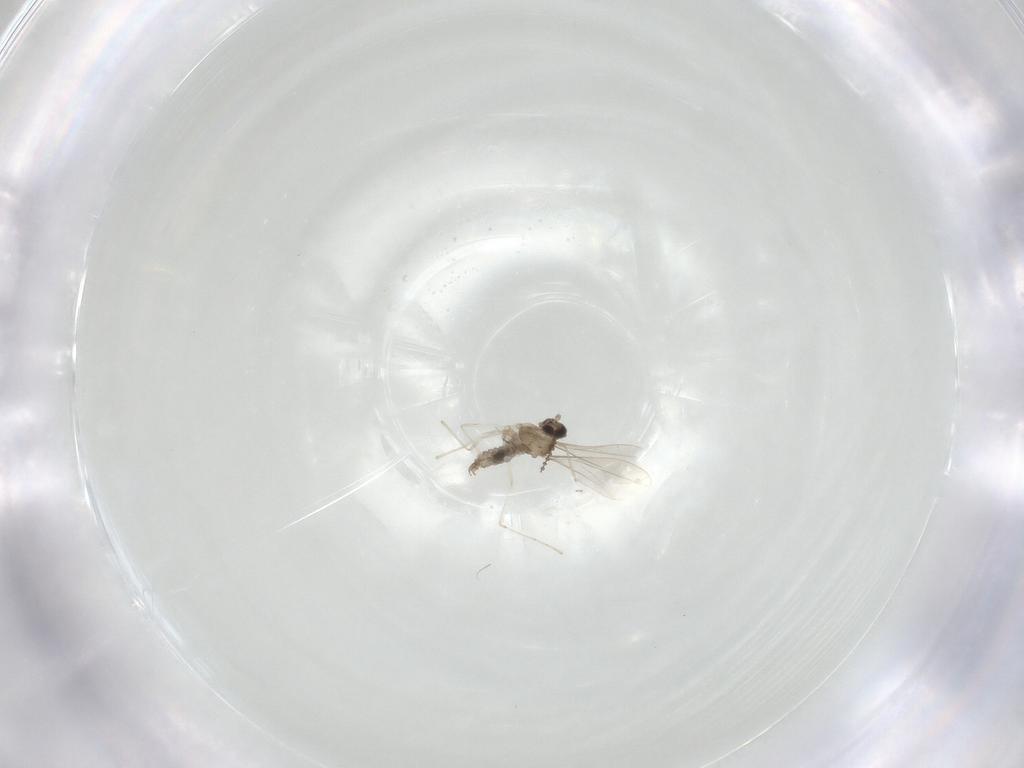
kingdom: Animalia
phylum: Arthropoda
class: Insecta
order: Diptera
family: Cecidomyiidae
